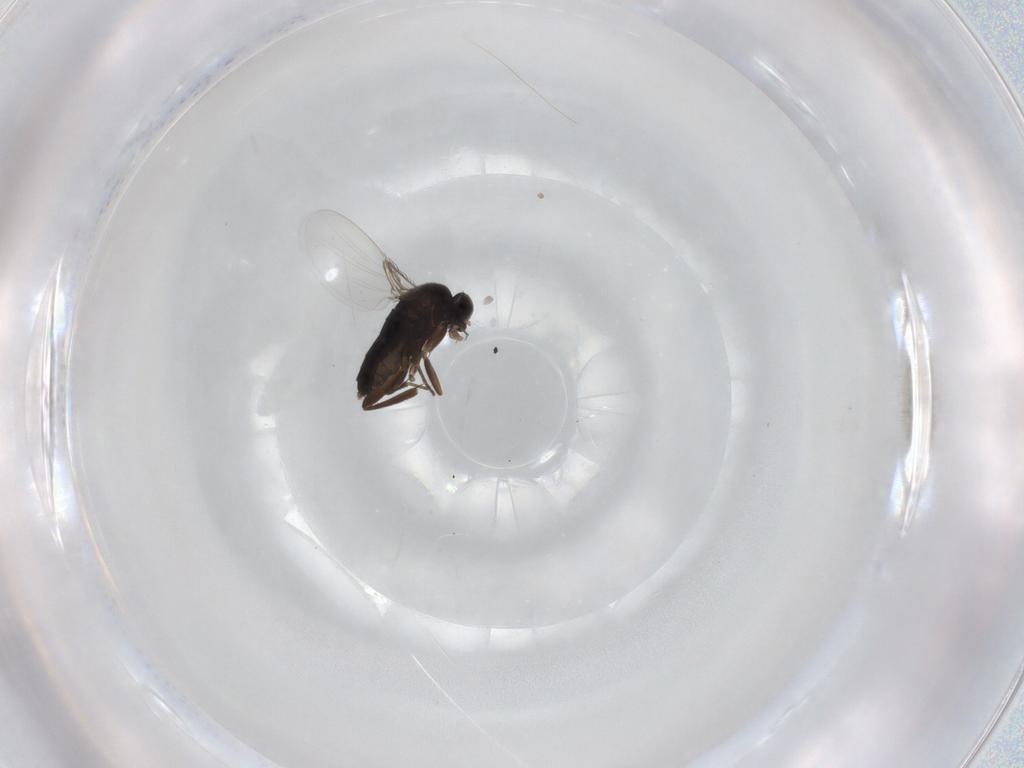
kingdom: Animalia
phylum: Arthropoda
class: Insecta
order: Diptera
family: Phoridae
